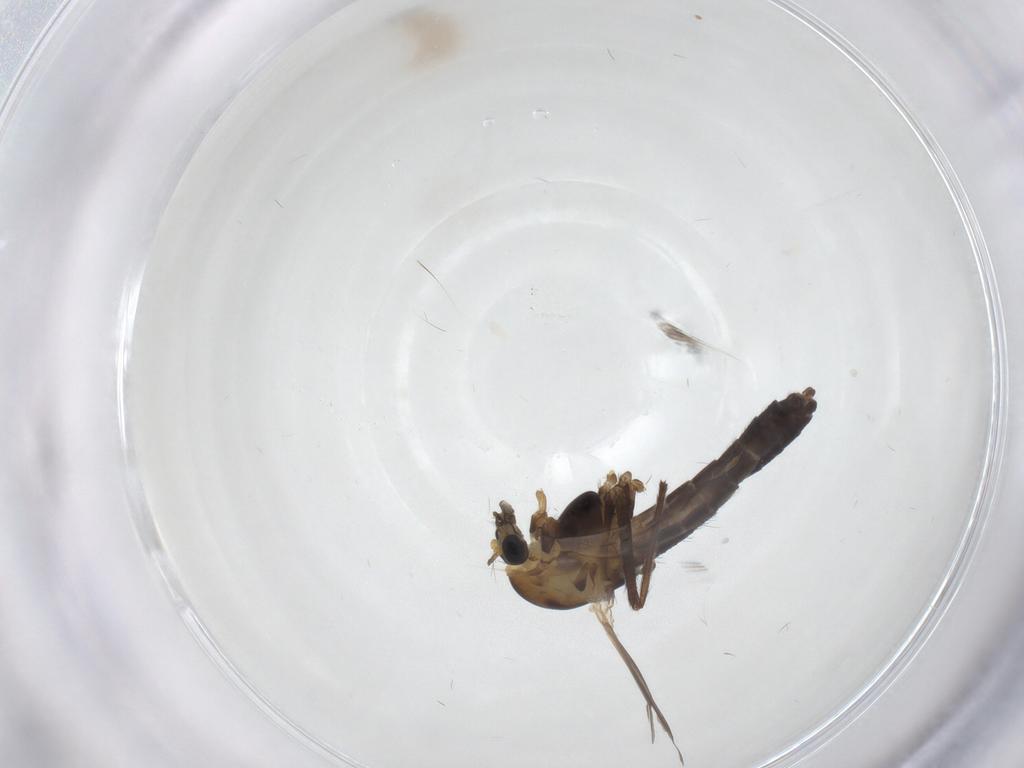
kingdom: Animalia
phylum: Arthropoda
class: Insecta
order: Diptera
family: Chironomidae
